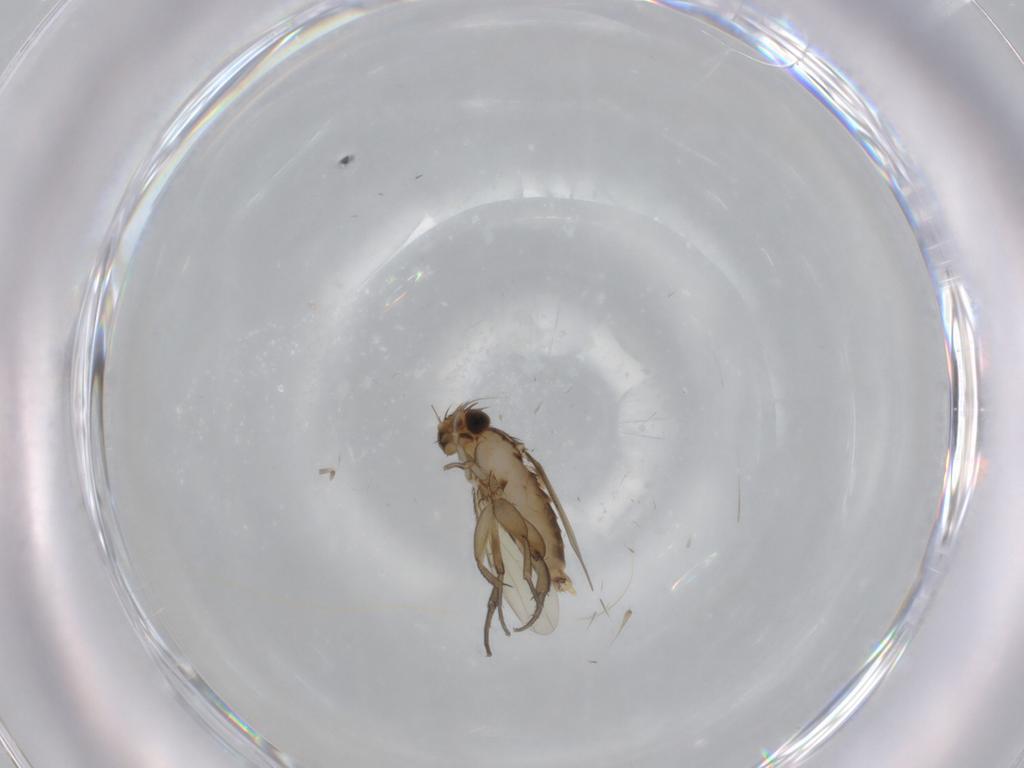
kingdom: Animalia
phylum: Arthropoda
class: Insecta
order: Diptera
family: Phoridae
